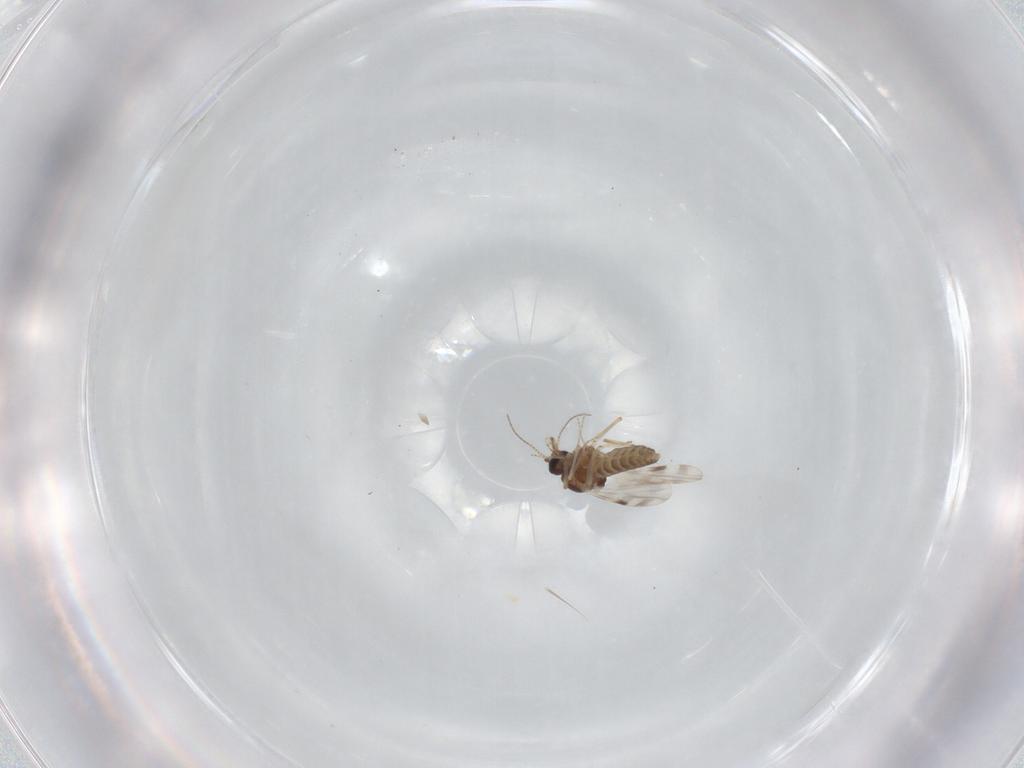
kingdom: Animalia
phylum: Arthropoda
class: Insecta
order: Diptera
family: Ceratopogonidae
